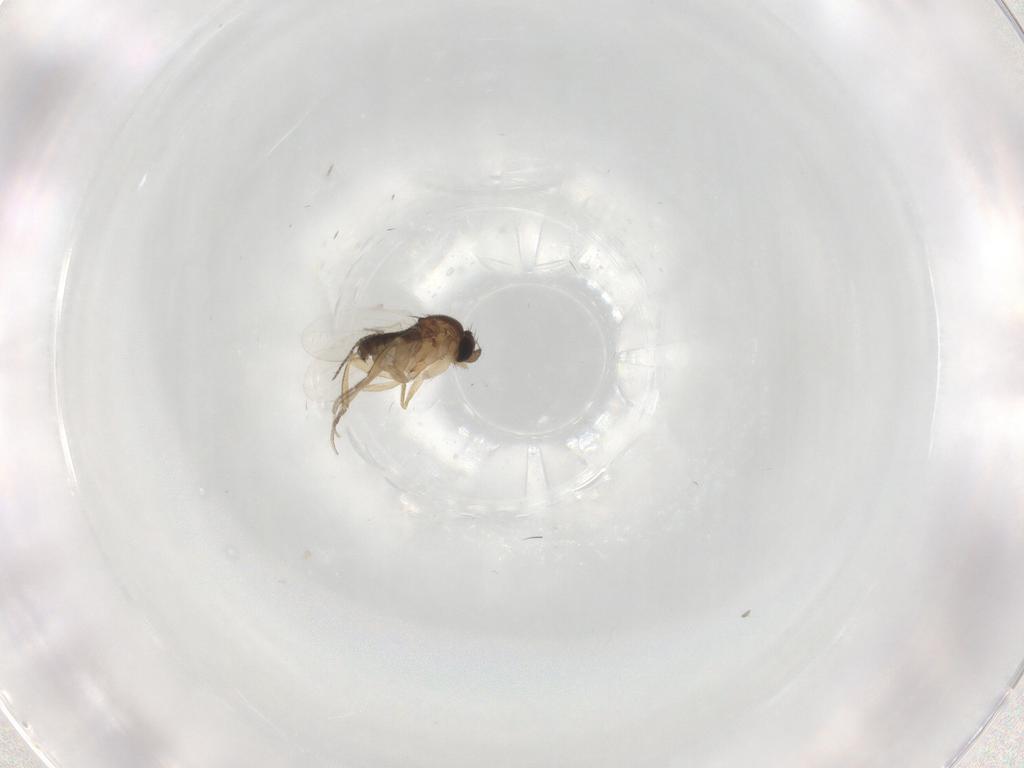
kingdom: Animalia
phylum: Arthropoda
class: Insecta
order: Diptera
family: Phoridae
